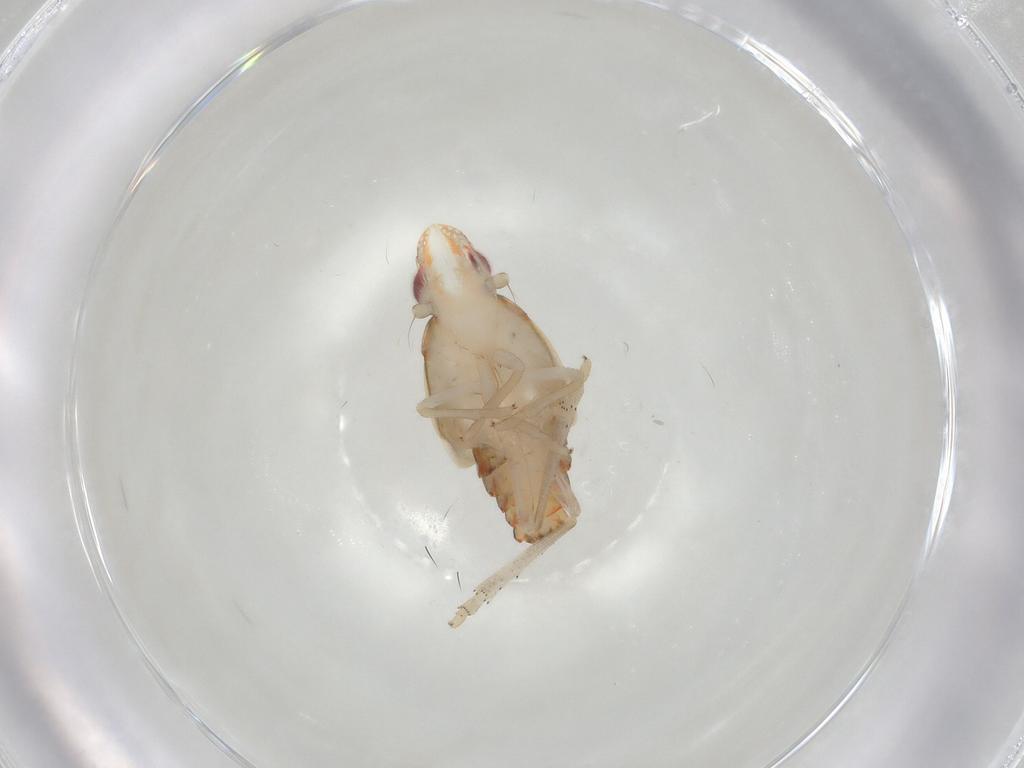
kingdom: Animalia
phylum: Arthropoda
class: Insecta
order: Hemiptera
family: Tropiduchidae
